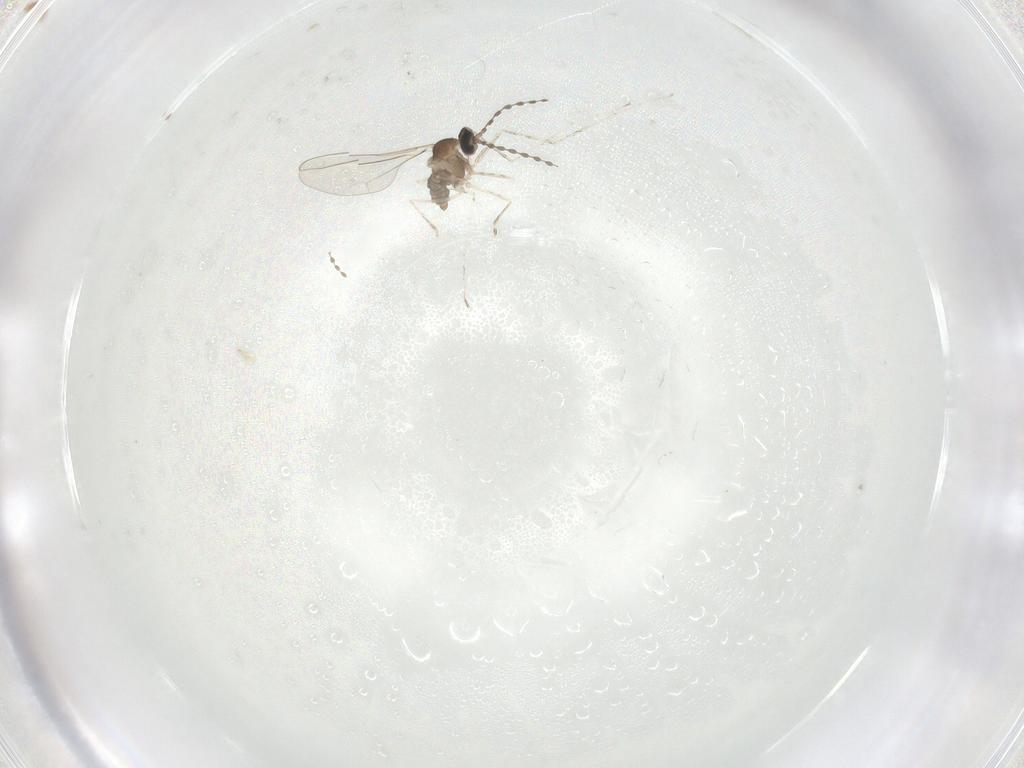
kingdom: Animalia
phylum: Arthropoda
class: Insecta
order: Diptera
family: Cecidomyiidae
